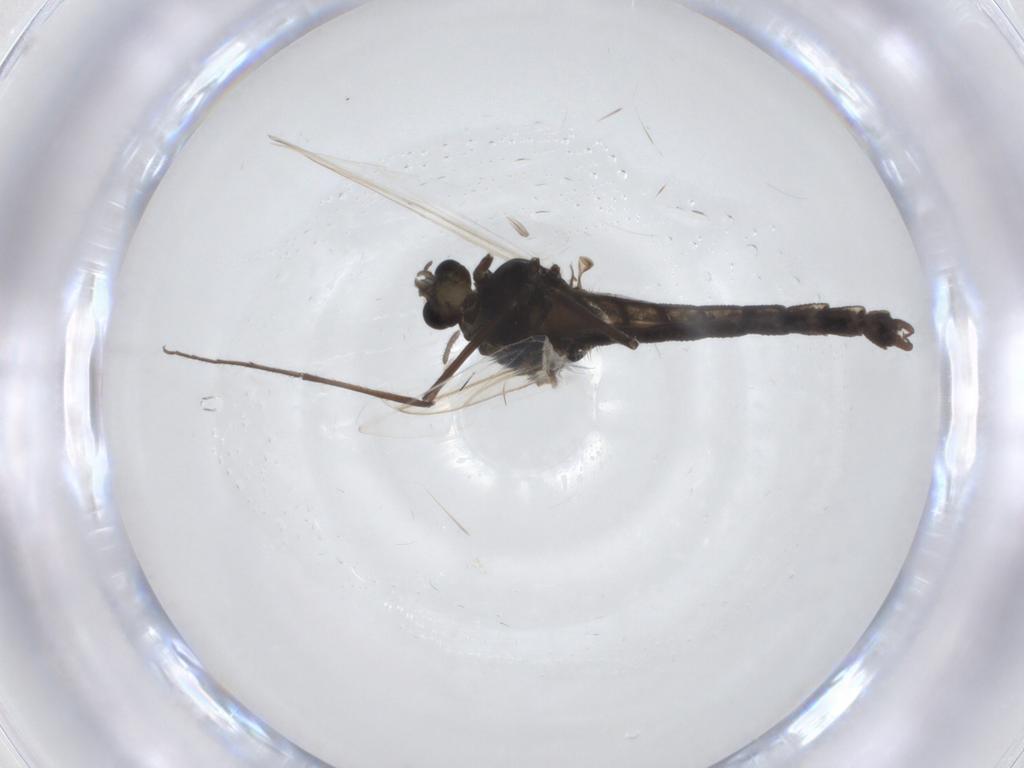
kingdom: Animalia
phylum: Arthropoda
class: Insecta
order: Diptera
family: Chironomidae
